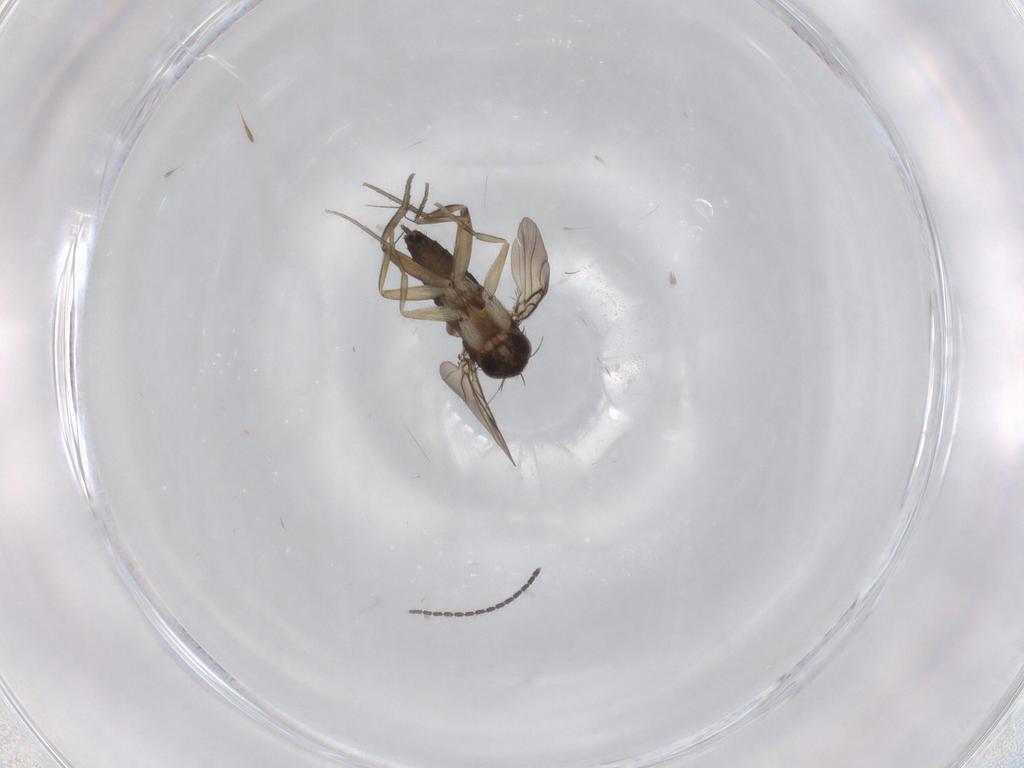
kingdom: Animalia
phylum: Arthropoda
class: Insecta
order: Diptera
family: Phoridae
